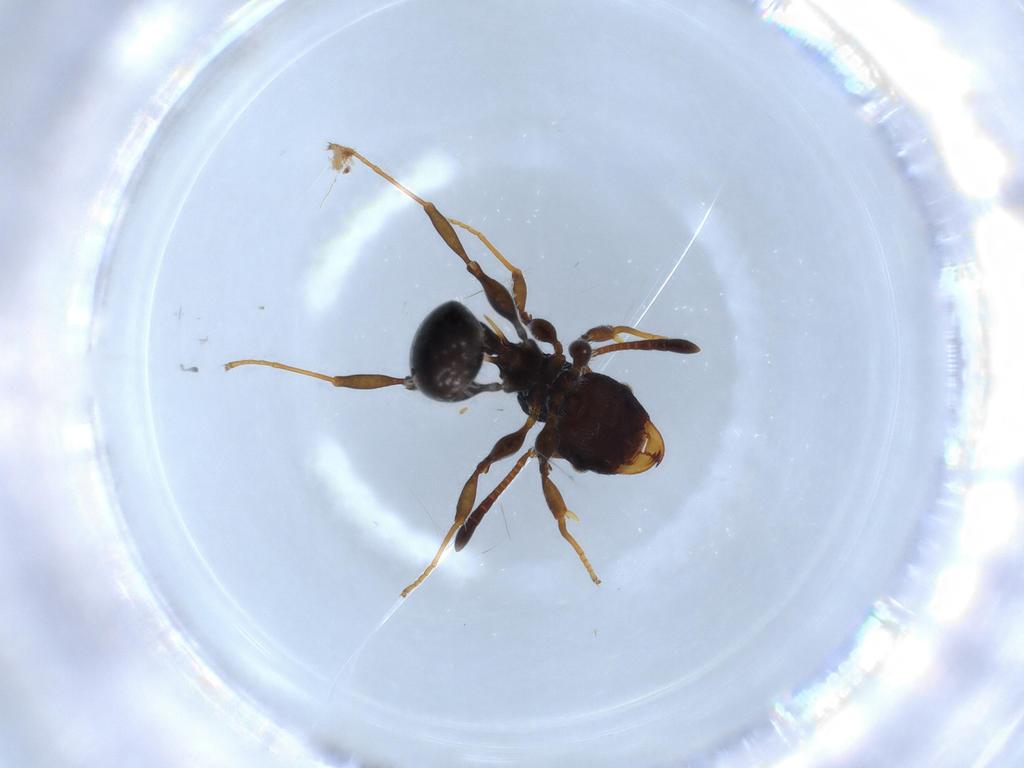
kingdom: Animalia
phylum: Arthropoda
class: Insecta
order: Hymenoptera
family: Formicidae
